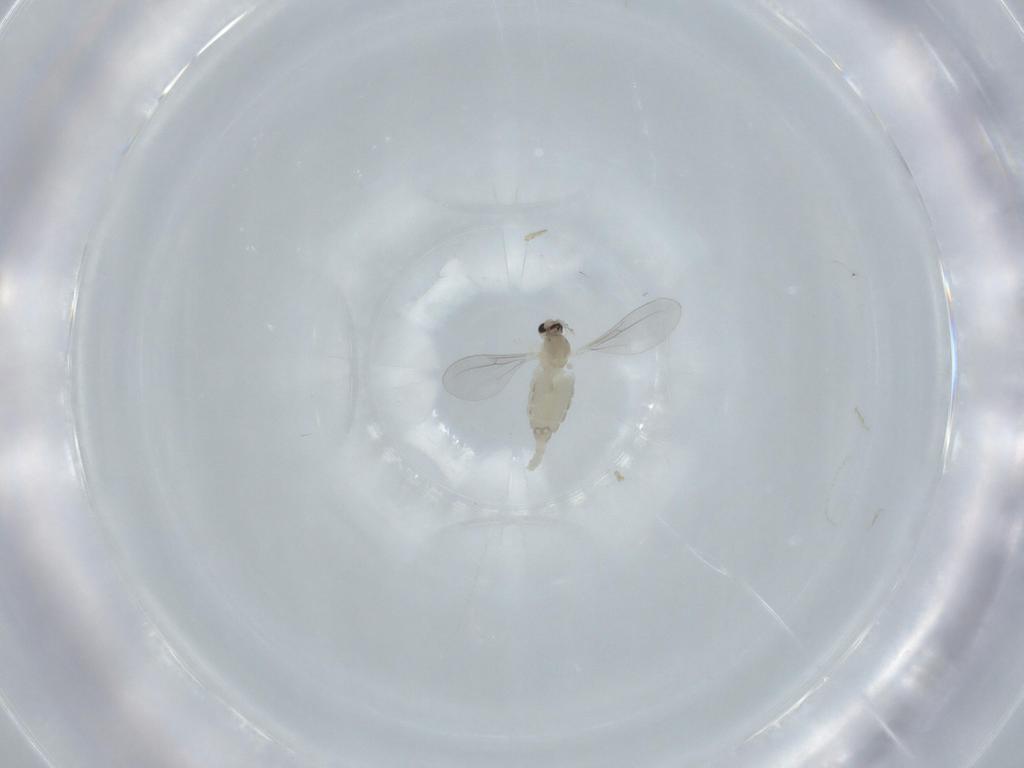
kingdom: Animalia
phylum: Arthropoda
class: Insecta
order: Diptera
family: Cecidomyiidae
